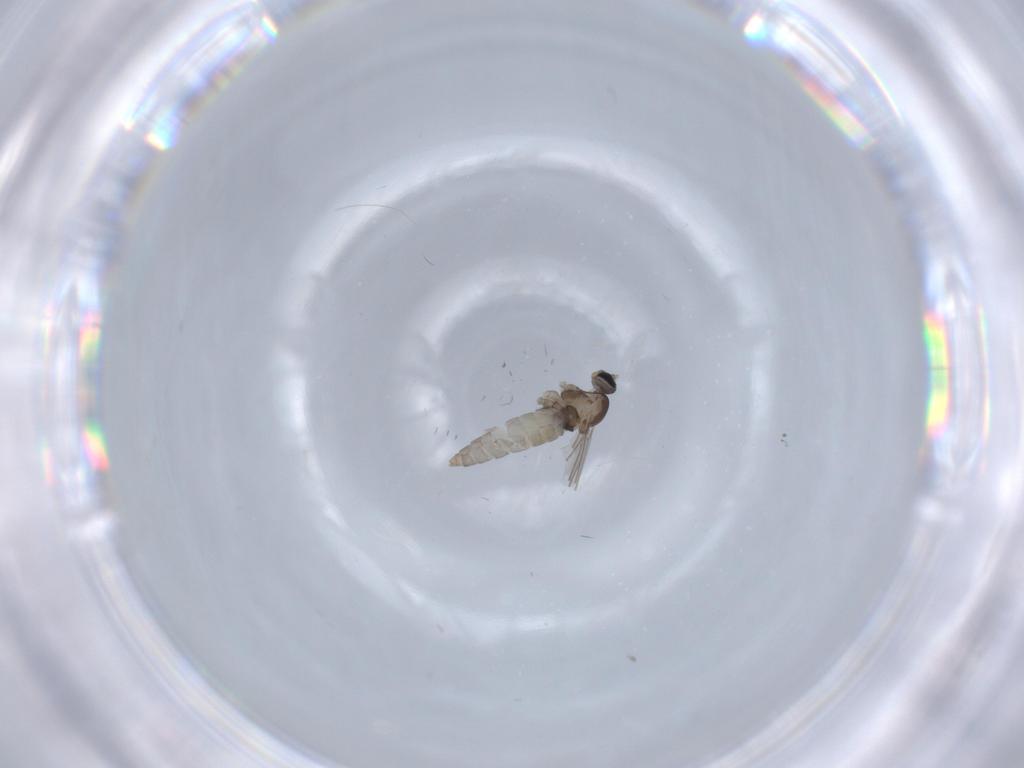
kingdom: Animalia
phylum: Arthropoda
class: Insecta
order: Diptera
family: Cecidomyiidae
